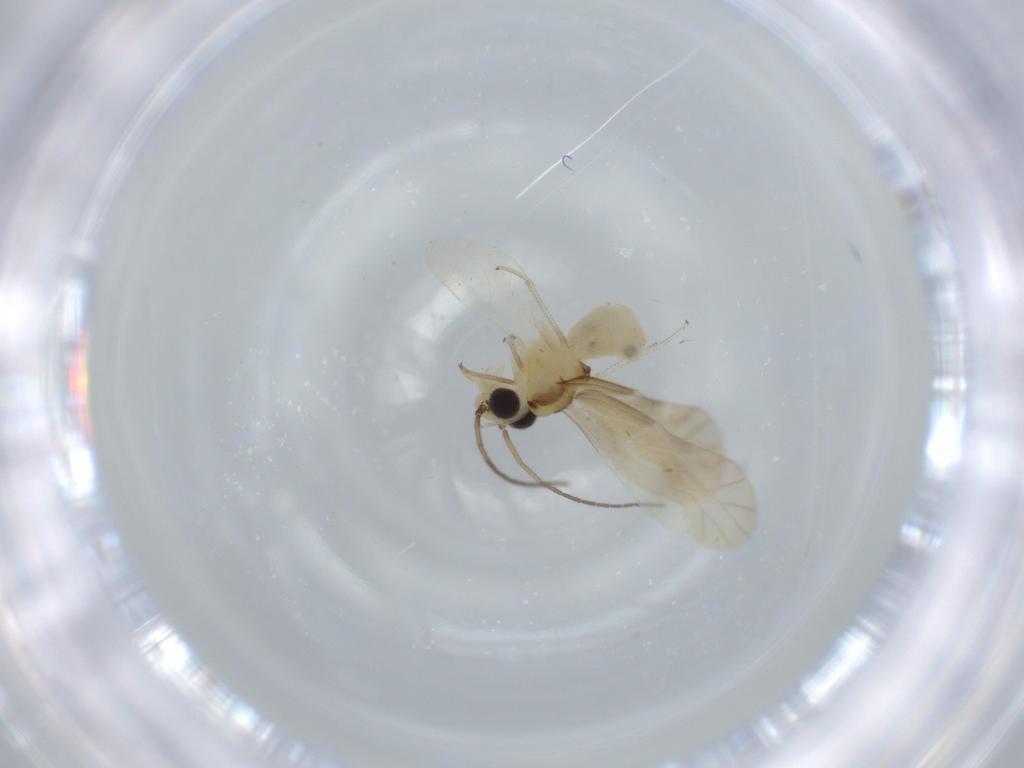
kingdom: Animalia
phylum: Arthropoda
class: Insecta
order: Psocodea
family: Caeciliusidae
